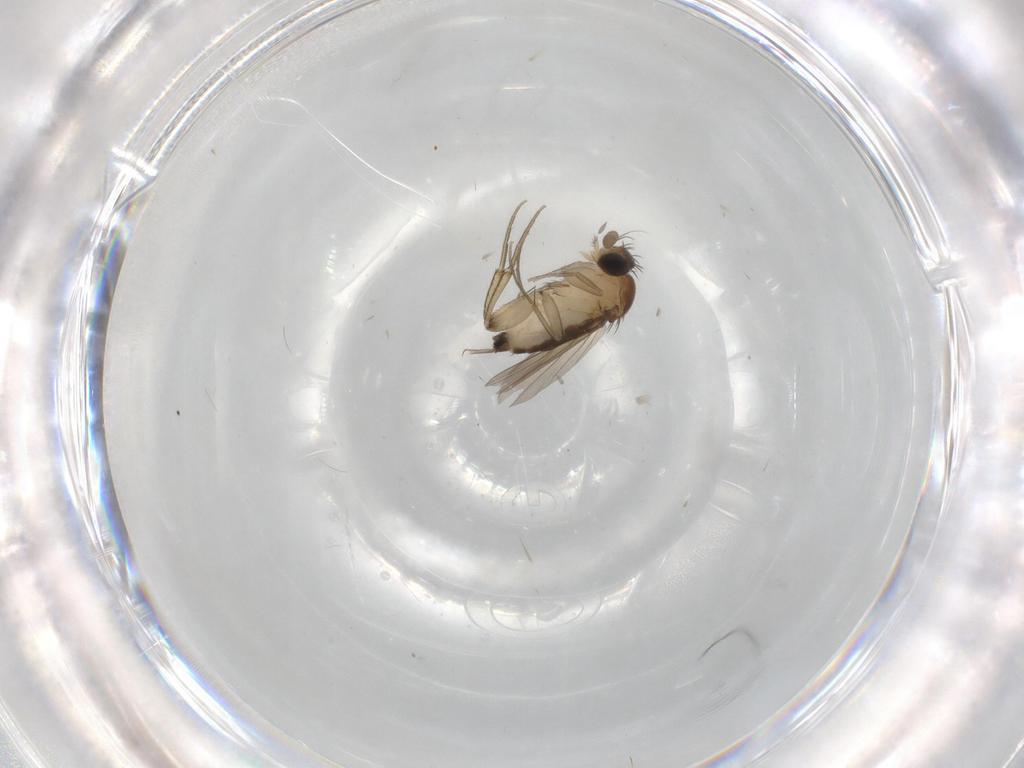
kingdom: Animalia
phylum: Arthropoda
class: Insecta
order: Diptera
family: Phoridae
